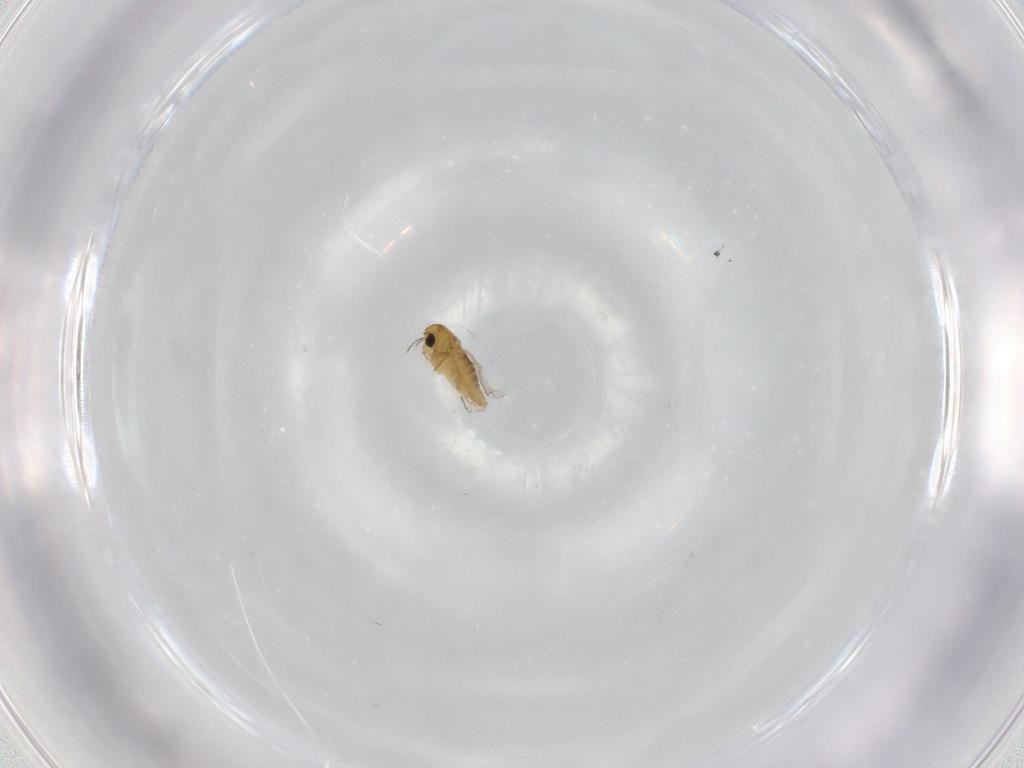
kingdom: Animalia
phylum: Arthropoda
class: Insecta
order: Diptera
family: Chironomidae
